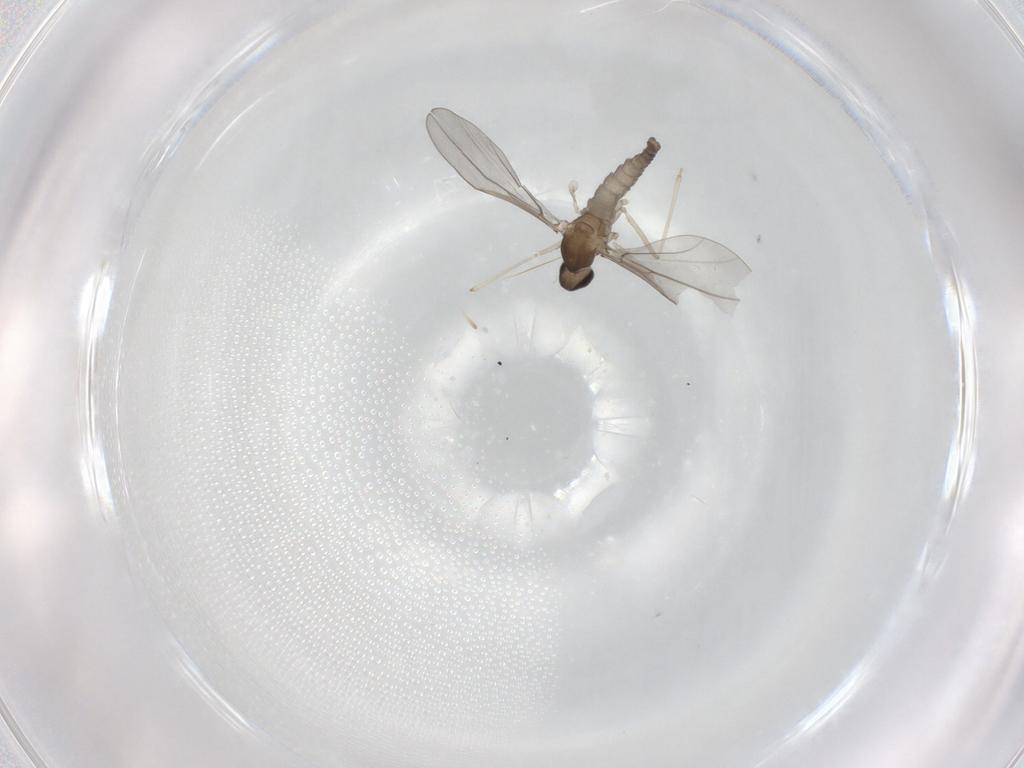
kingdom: Animalia
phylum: Arthropoda
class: Insecta
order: Diptera
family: Cecidomyiidae
